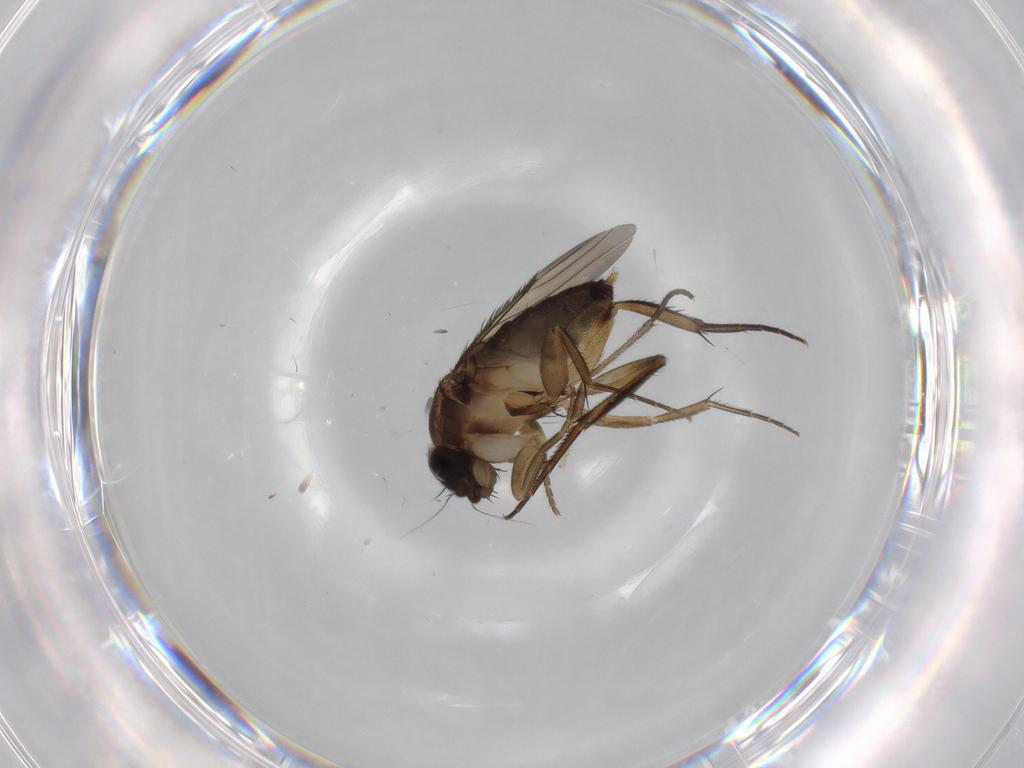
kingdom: Animalia
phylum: Arthropoda
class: Insecta
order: Diptera
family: Phoridae
